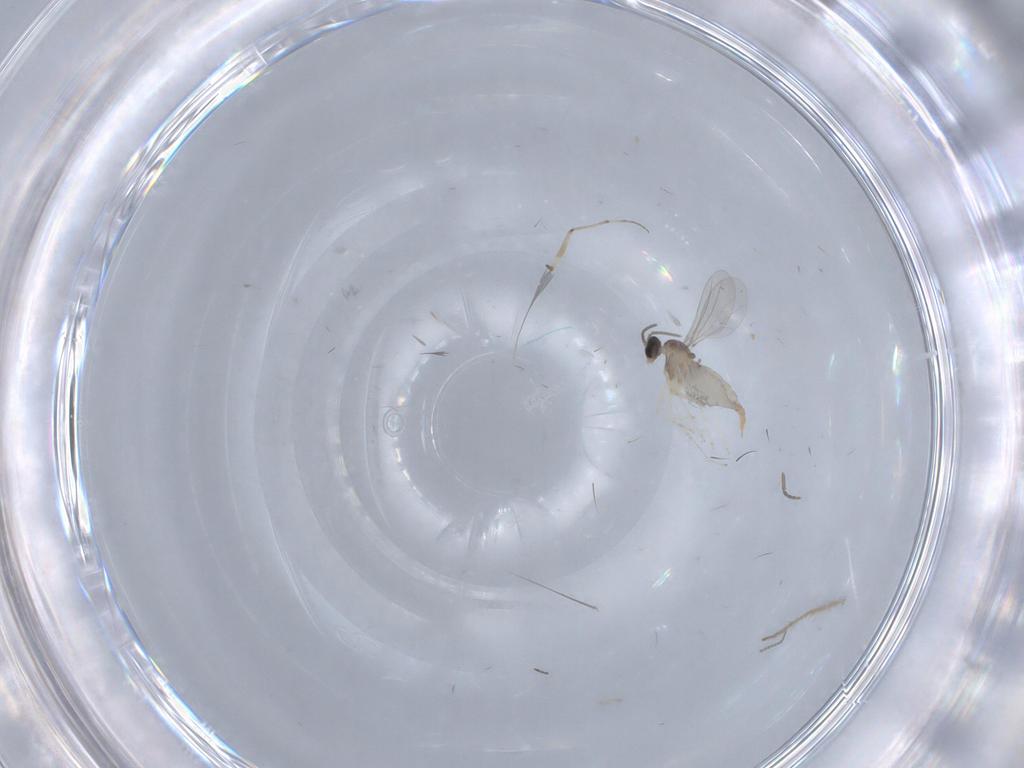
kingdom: Animalia
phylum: Arthropoda
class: Insecta
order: Diptera
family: Cecidomyiidae
